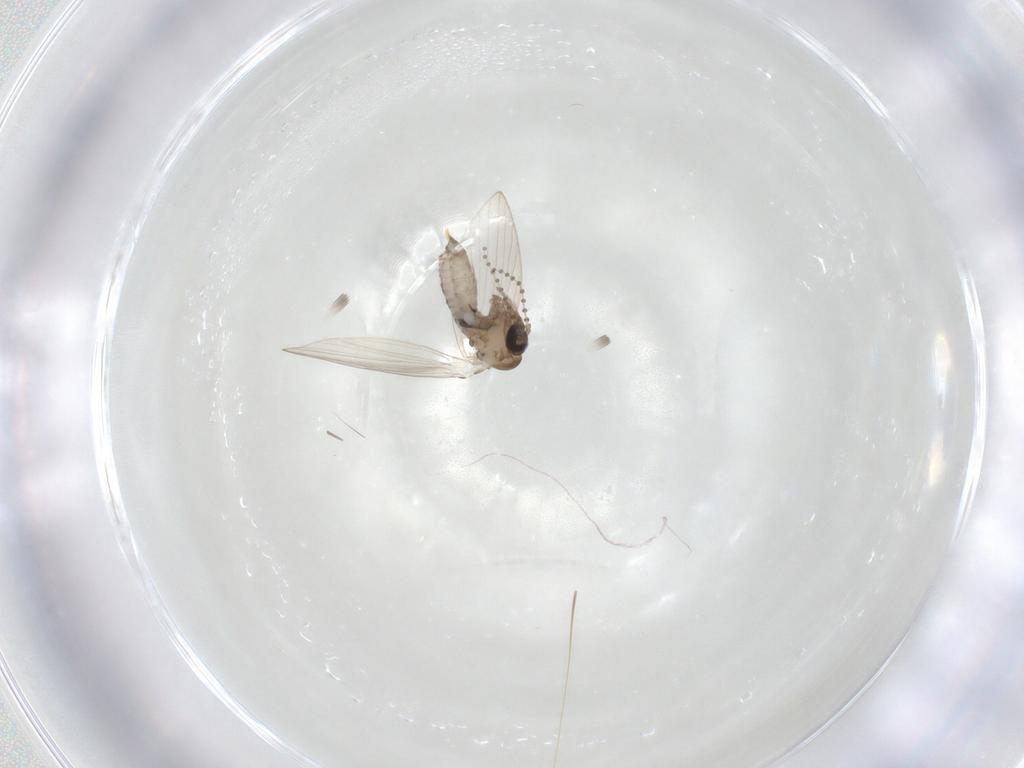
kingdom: Animalia
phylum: Arthropoda
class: Insecta
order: Diptera
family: Psychodidae
